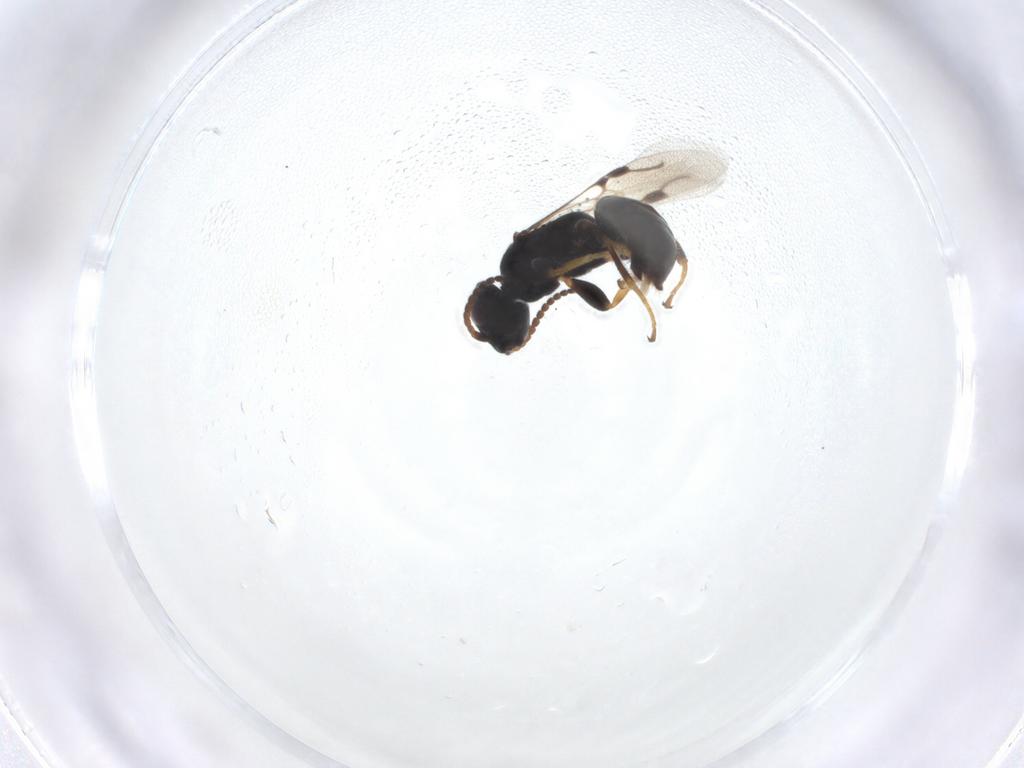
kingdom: Animalia
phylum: Arthropoda
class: Insecta
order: Hymenoptera
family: Bethylidae
